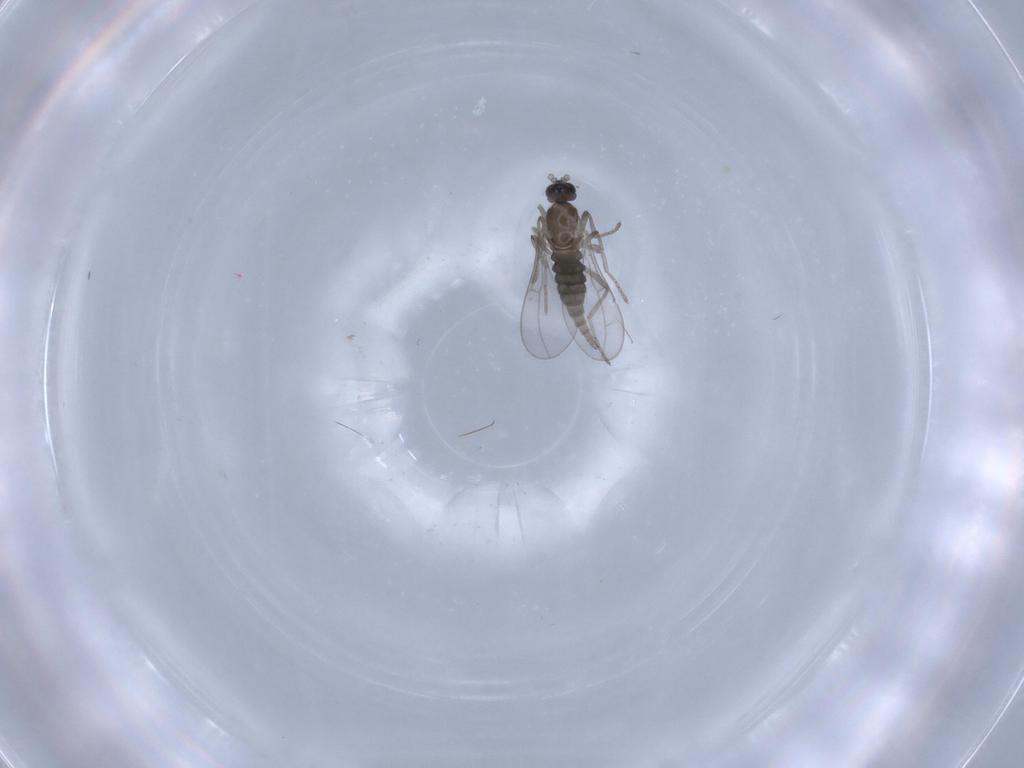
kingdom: Animalia
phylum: Arthropoda
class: Insecta
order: Diptera
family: Cecidomyiidae
